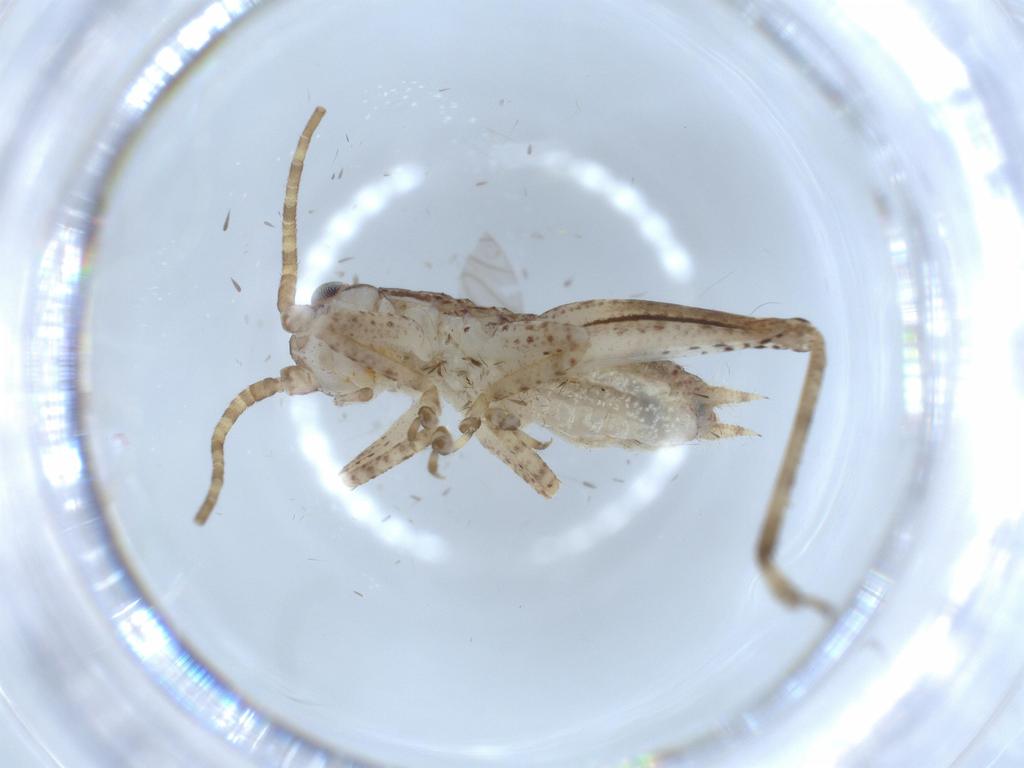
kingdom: Animalia
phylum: Arthropoda
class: Insecta
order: Orthoptera
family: Gryllidae
